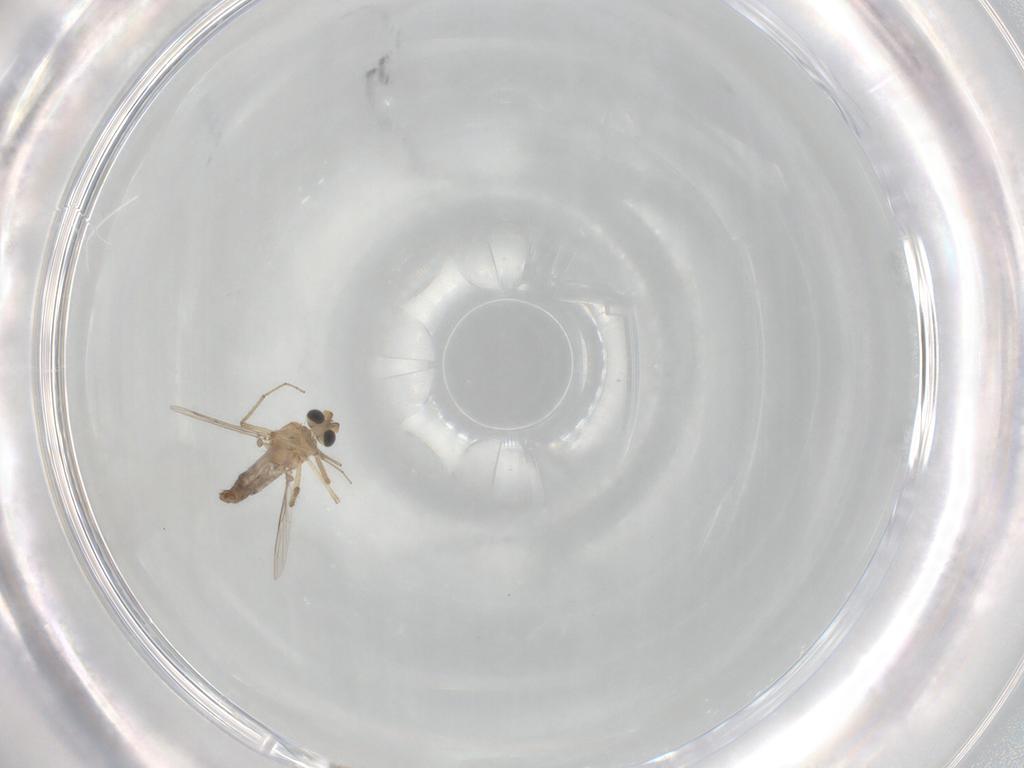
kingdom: Animalia
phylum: Arthropoda
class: Insecta
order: Diptera
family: Ceratopogonidae
